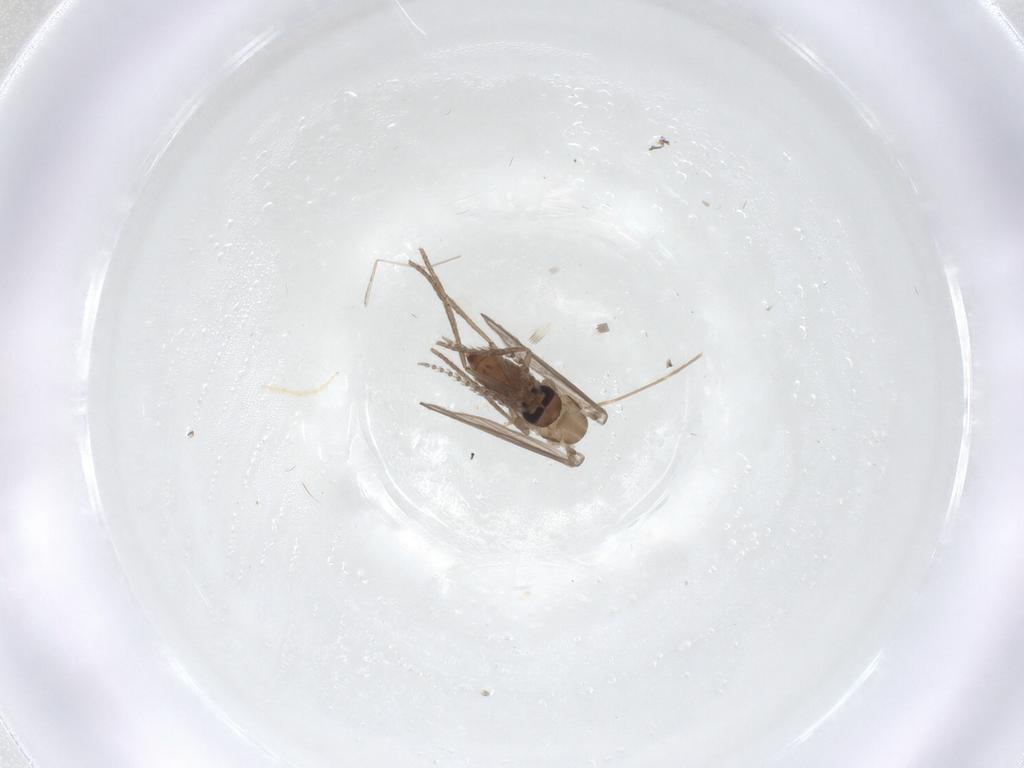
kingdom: Animalia
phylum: Arthropoda
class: Insecta
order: Diptera
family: Psychodidae
